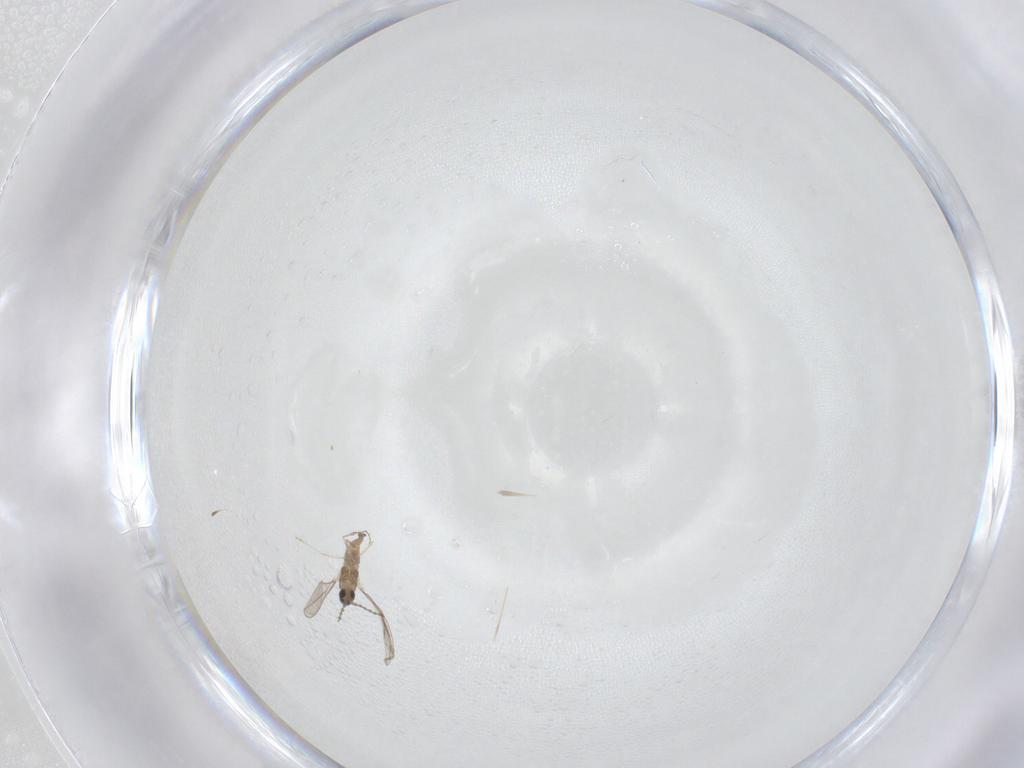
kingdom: Animalia
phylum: Arthropoda
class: Insecta
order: Diptera
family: Cecidomyiidae
